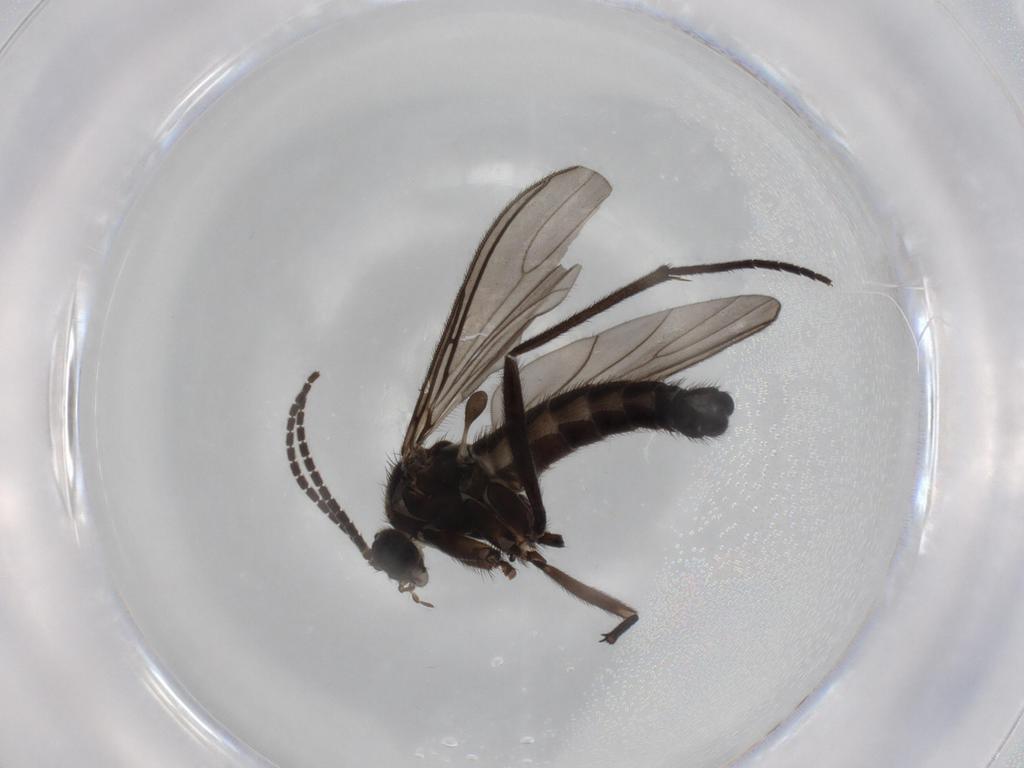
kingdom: Animalia
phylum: Arthropoda
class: Insecta
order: Diptera
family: Sciaridae
